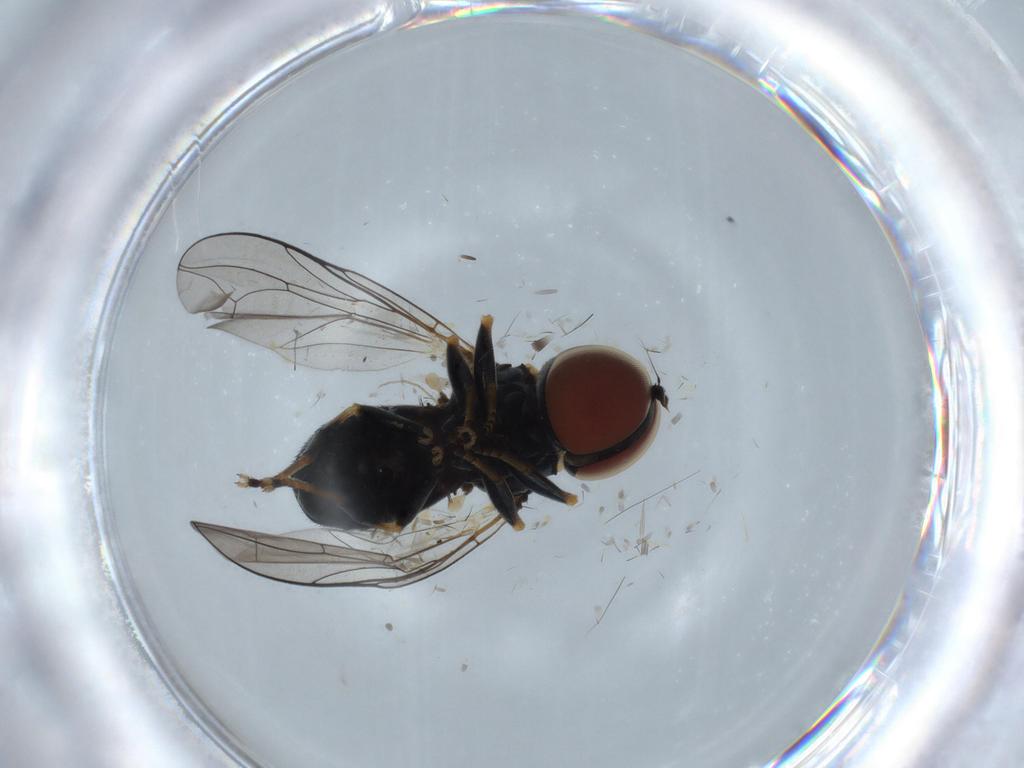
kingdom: Animalia
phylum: Arthropoda
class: Insecta
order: Diptera
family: Pipunculidae
